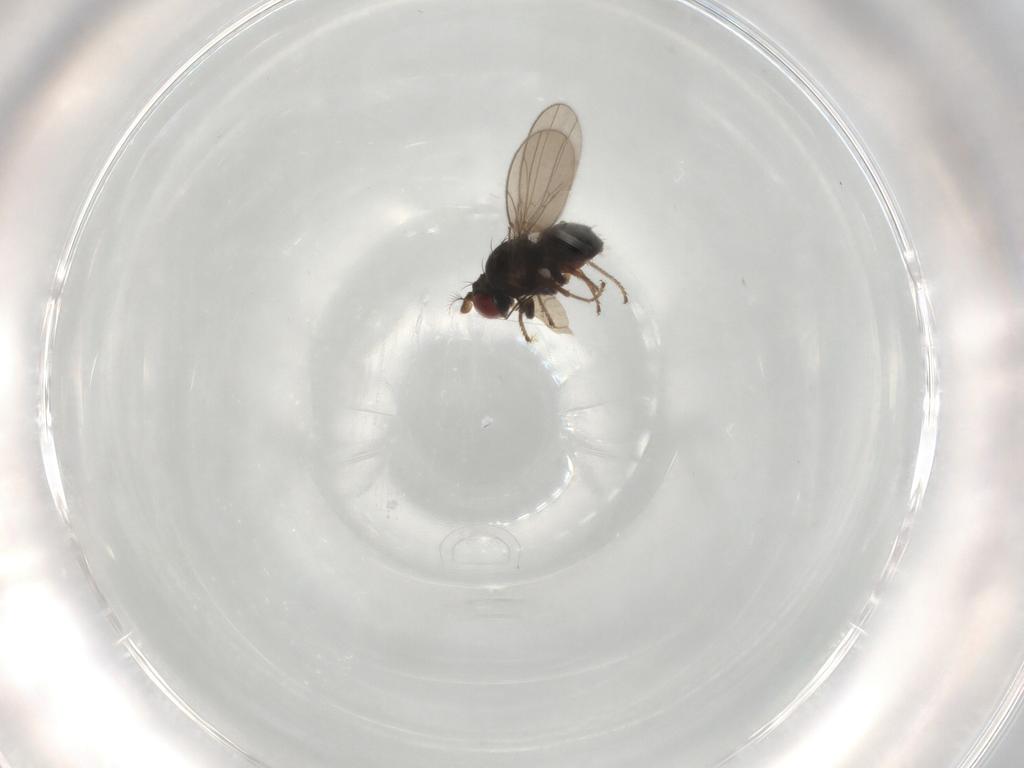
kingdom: Animalia
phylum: Arthropoda
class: Insecta
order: Diptera
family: Ephydridae
